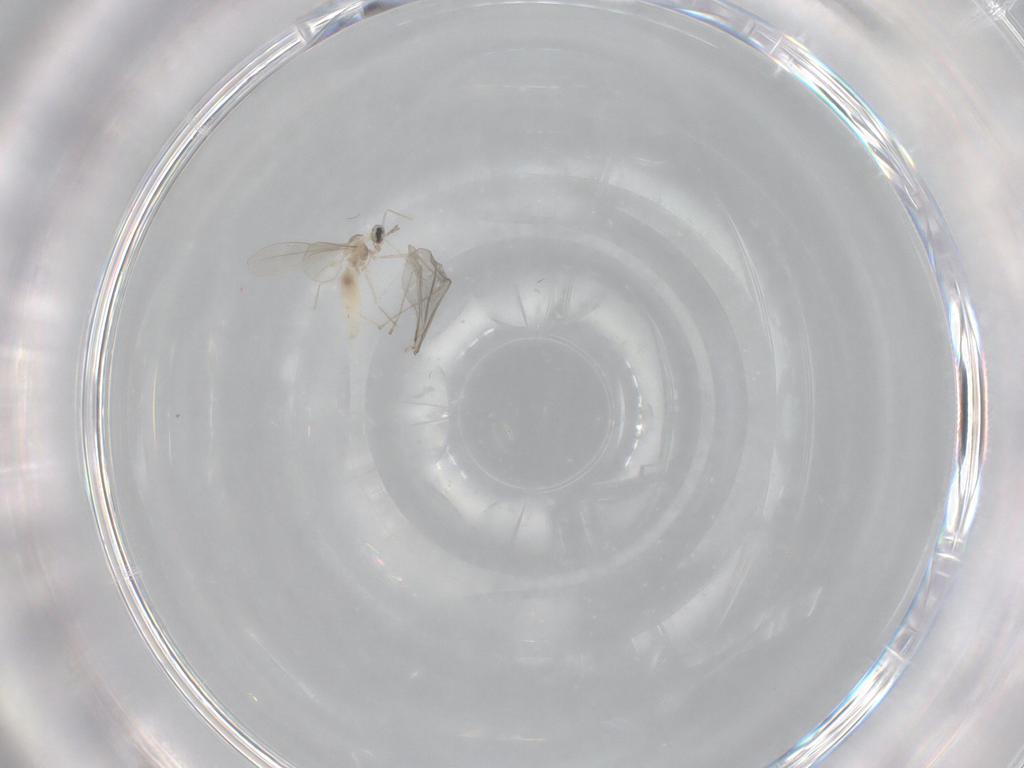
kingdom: Animalia
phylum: Arthropoda
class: Insecta
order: Diptera
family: Cecidomyiidae
